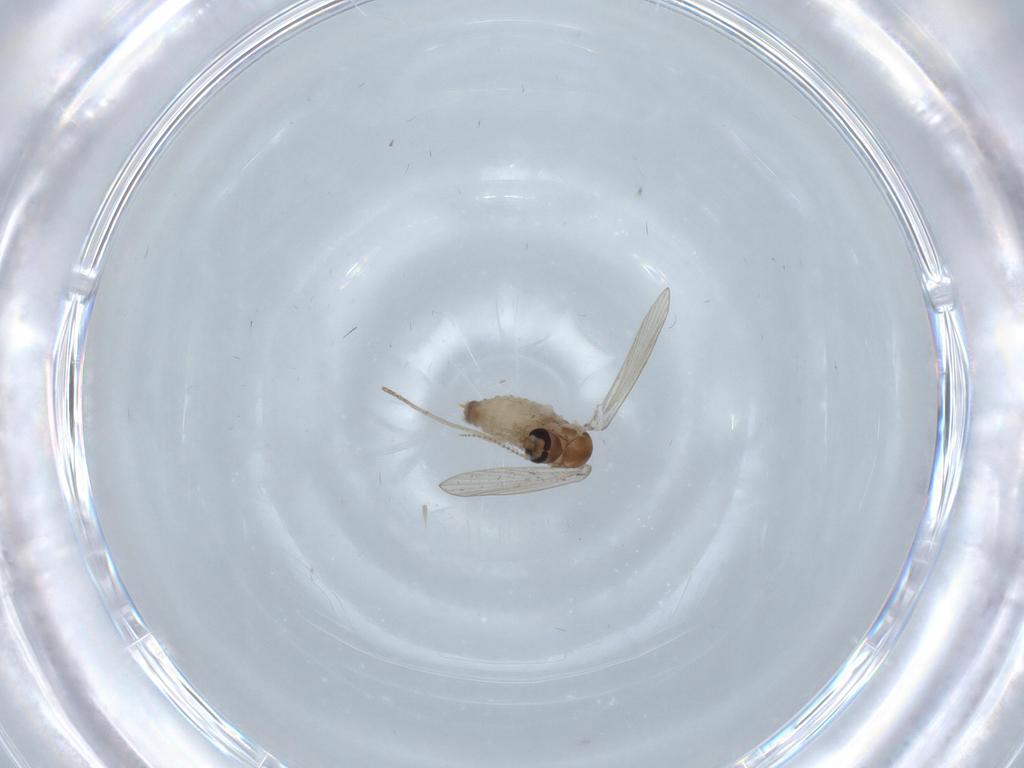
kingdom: Animalia
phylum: Arthropoda
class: Insecta
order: Diptera
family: Psychodidae
